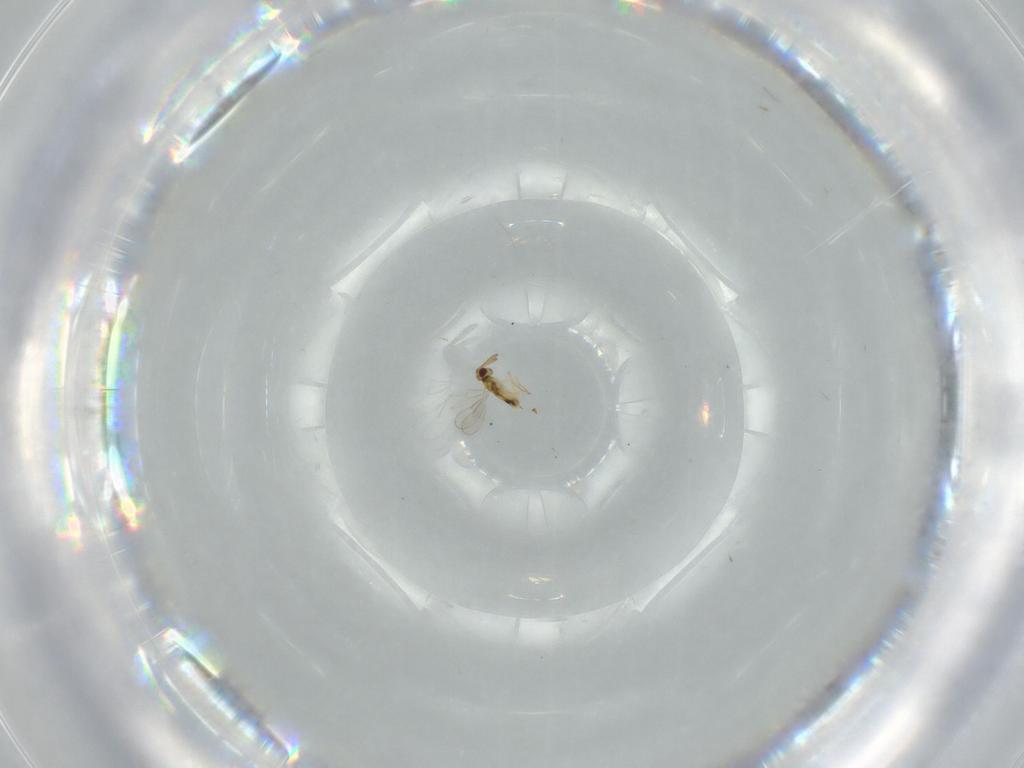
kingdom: Animalia
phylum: Arthropoda
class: Insecta
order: Hymenoptera
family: Aphelinidae
